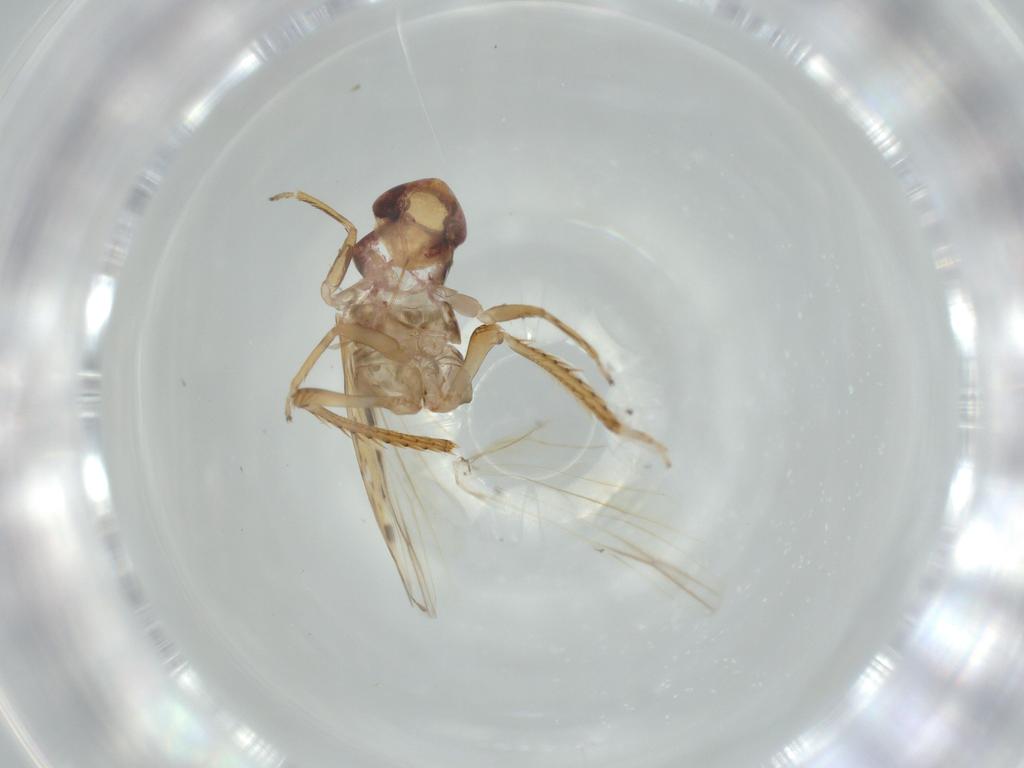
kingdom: Animalia
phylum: Arthropoda
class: Insecta
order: Hemiptera
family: Cicadellidae
